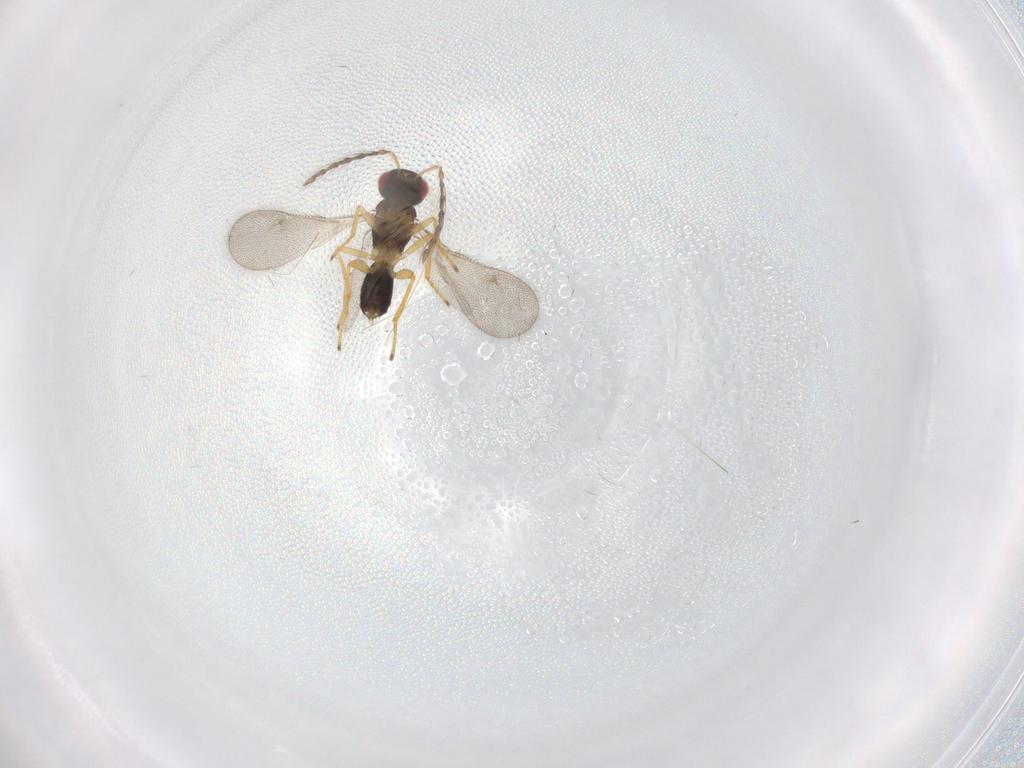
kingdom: Animalia
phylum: Arthropoda
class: Insecta
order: Hymenoptera
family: Eulophidae
